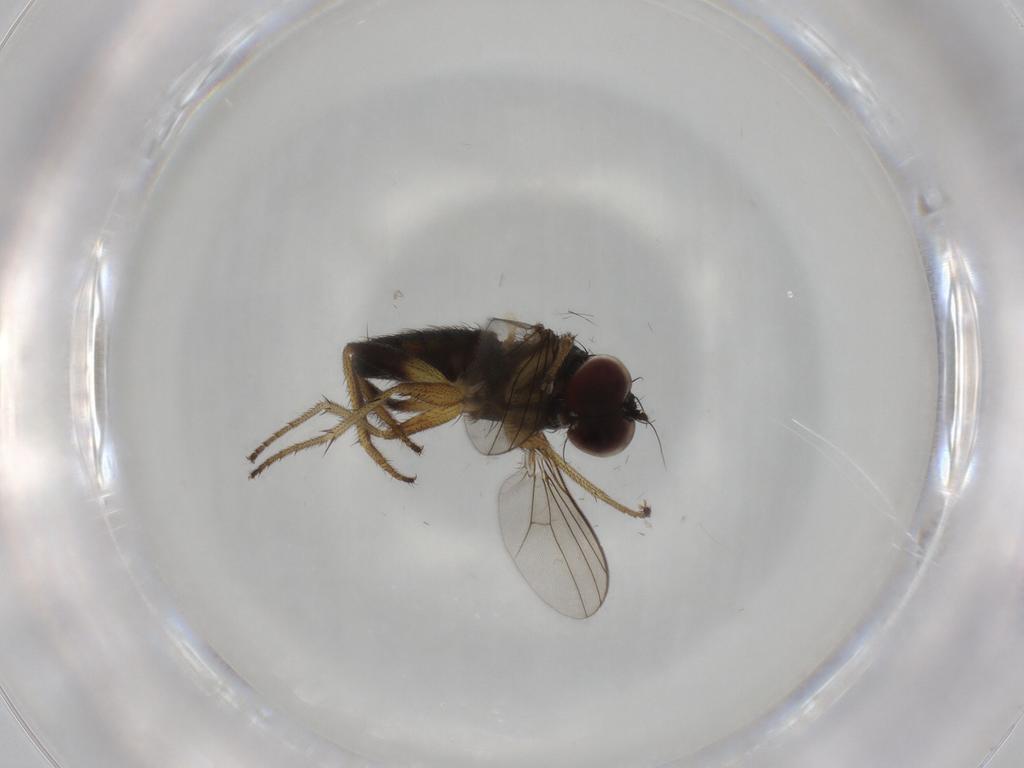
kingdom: Animalia
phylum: Arthropoda
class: Insecta
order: Diptera
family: Dolichopodidae
